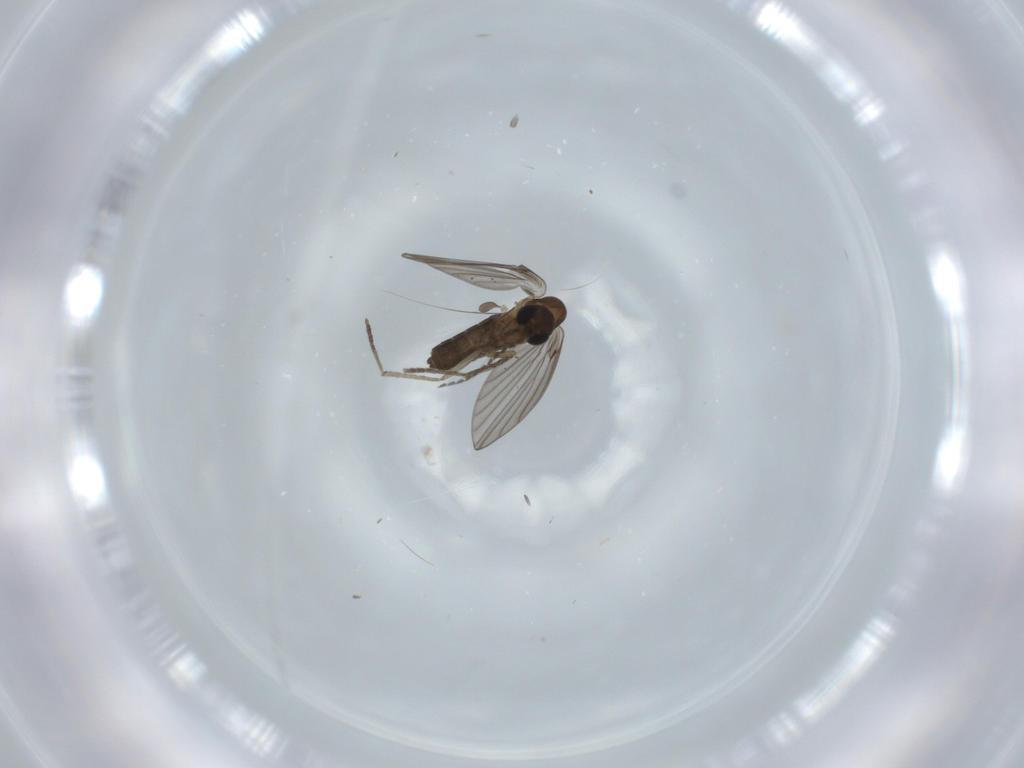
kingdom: Animalia
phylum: Arthropoda
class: Insecta
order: Diptera
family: Psychodidae
